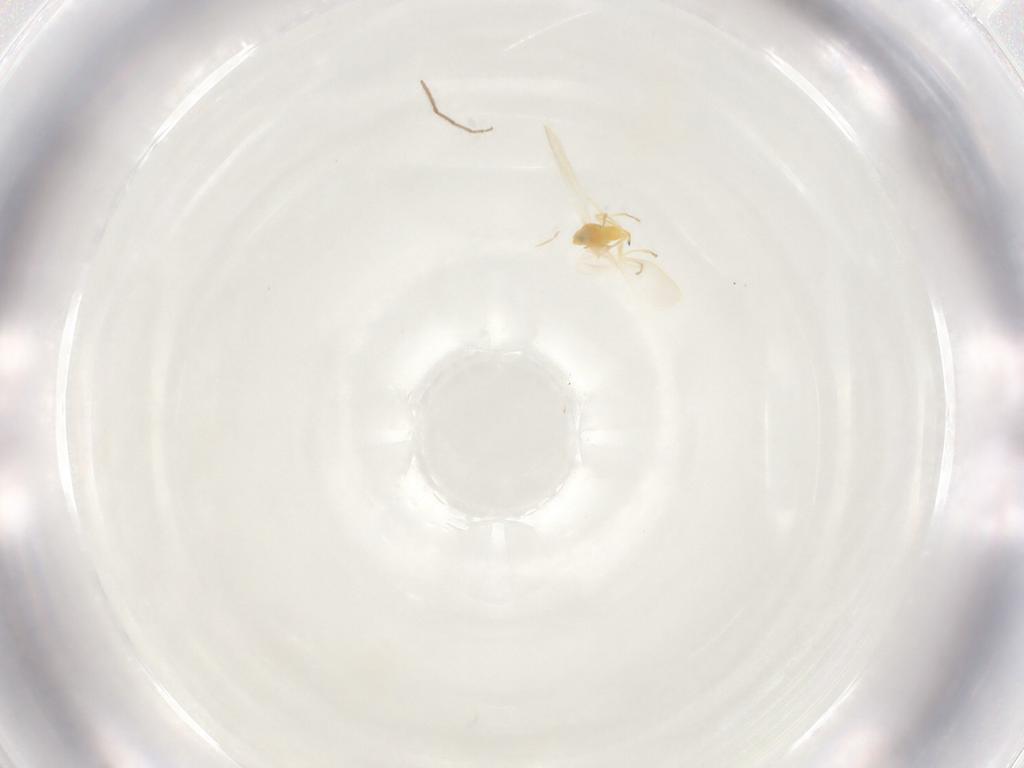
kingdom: Animalia
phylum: Arthropoda
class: Insecta
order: Hemiptera
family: Aleyrodidae
